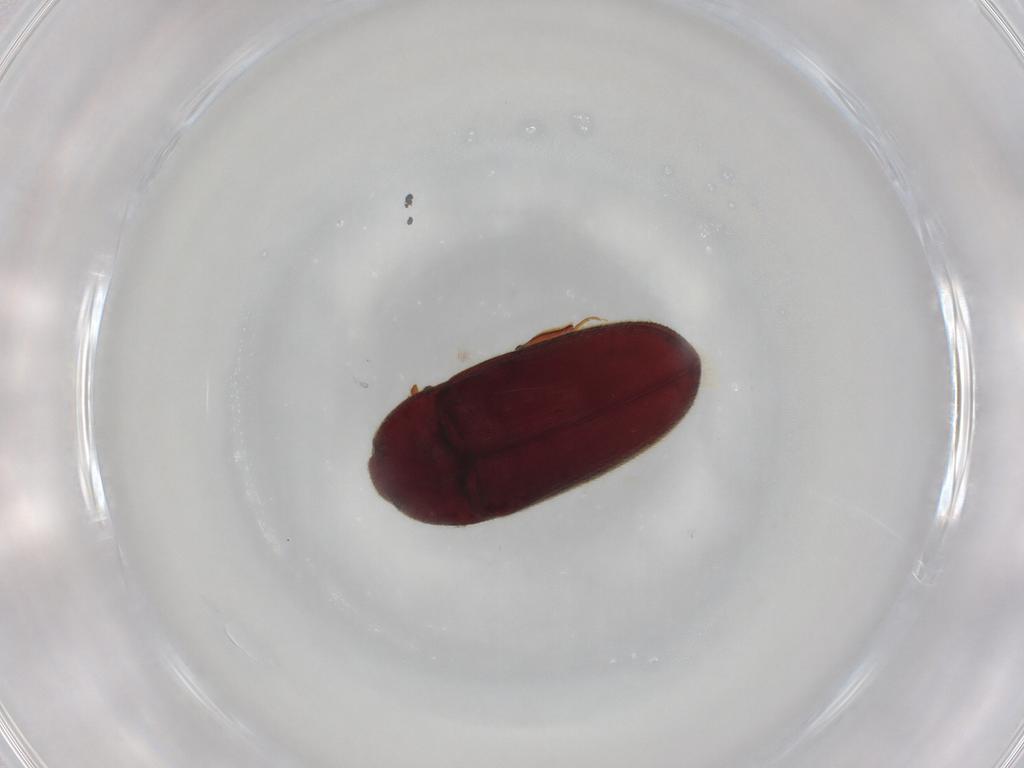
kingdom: Animalia
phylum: Arthropoda
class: Insecta
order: Coleoptera
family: Throscidae
